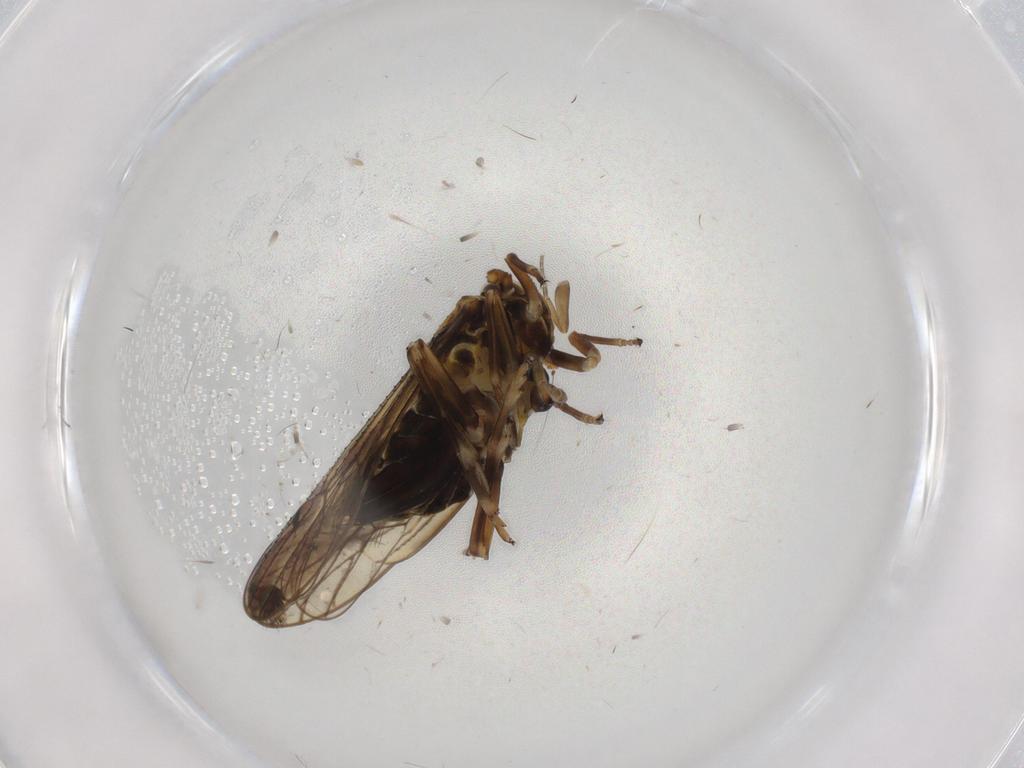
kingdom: Animalia
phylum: Arthropoda
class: Insecta
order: Hemiptera
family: Delphacidae
